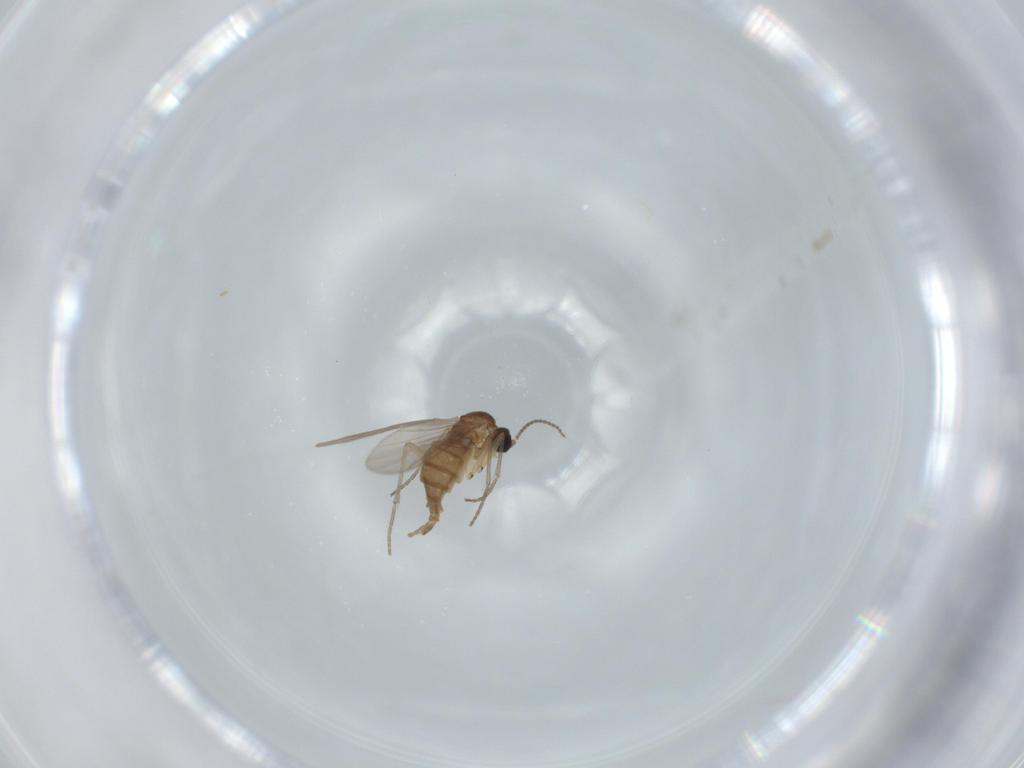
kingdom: Animalia
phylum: Arthropoda
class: Insecta
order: Diptera
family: Sciaridae
